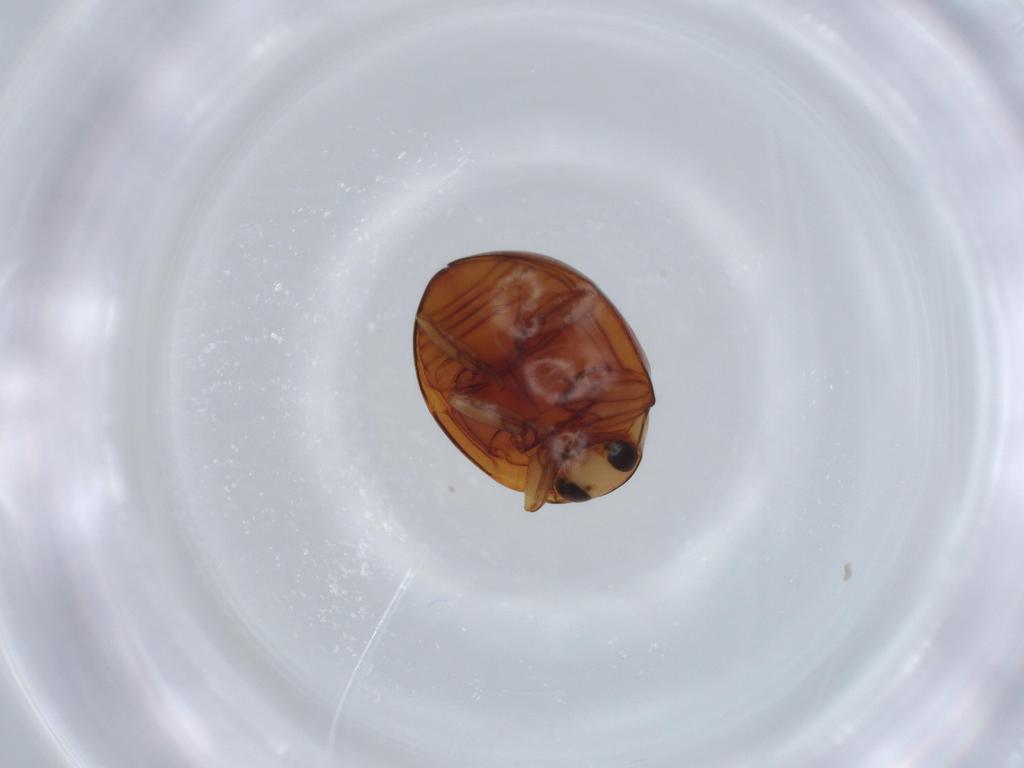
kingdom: Animalia
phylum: Arthropoda
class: Insecta
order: Coleoptera
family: Coccinellidae
